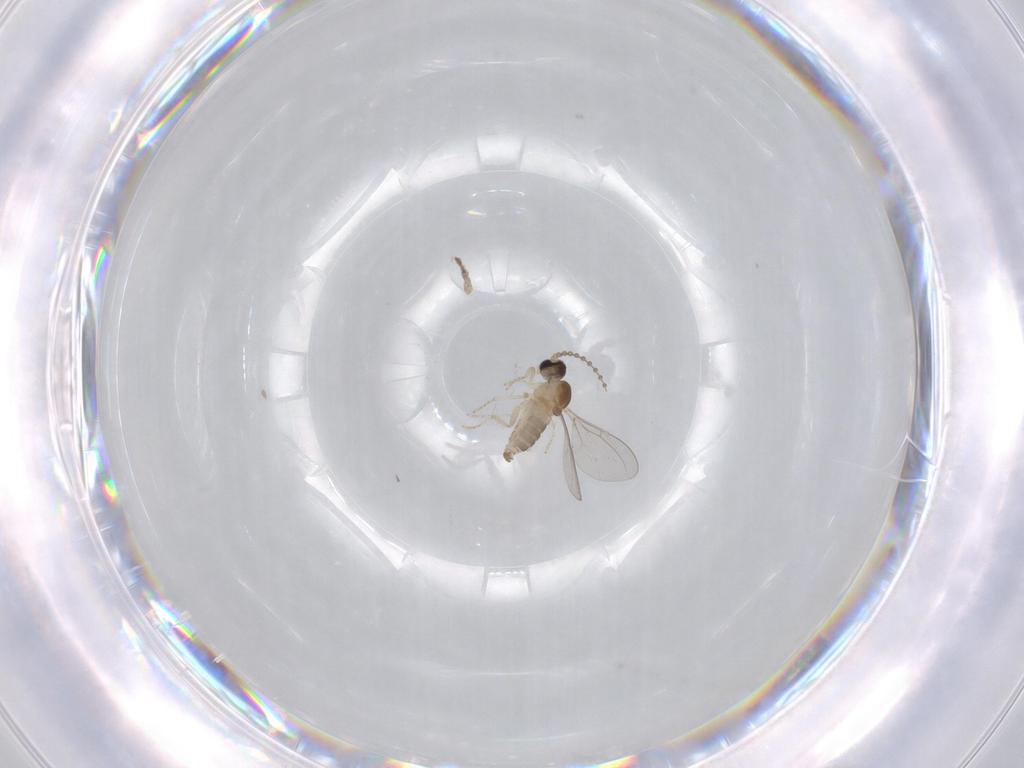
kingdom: Animalia
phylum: Arthropoda
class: Insecta
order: Diptera
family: Cecidomyiidae
